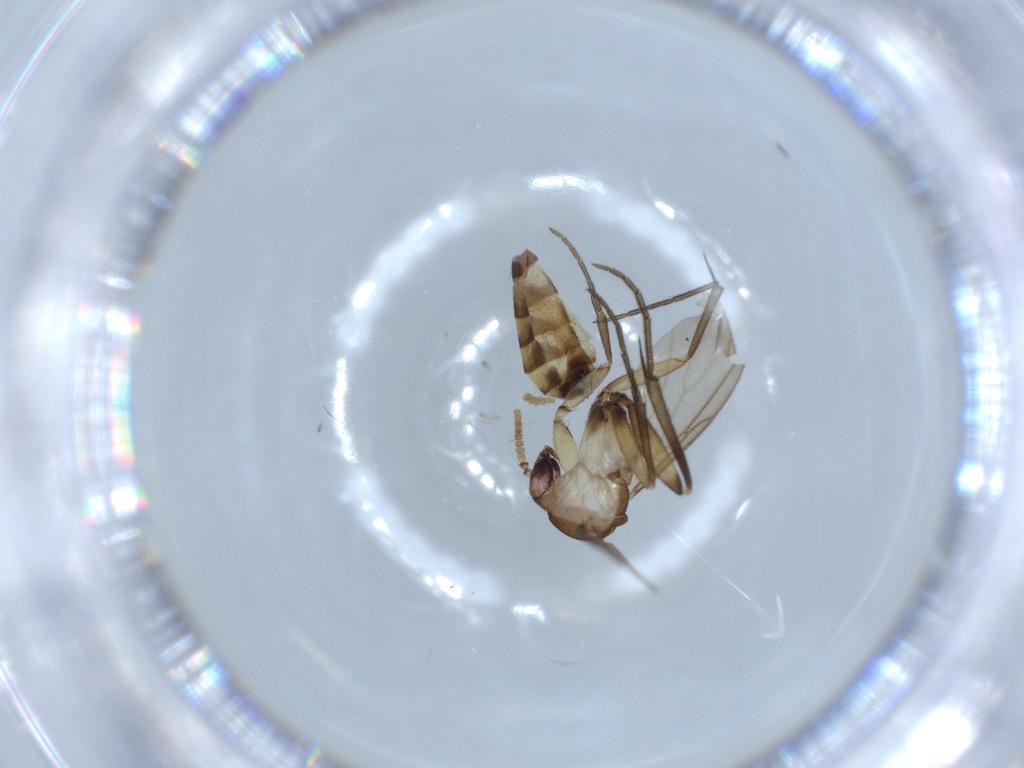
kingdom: Animalia
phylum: Arthropoda
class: Insecta
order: Diptera
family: Mycetophilidae
